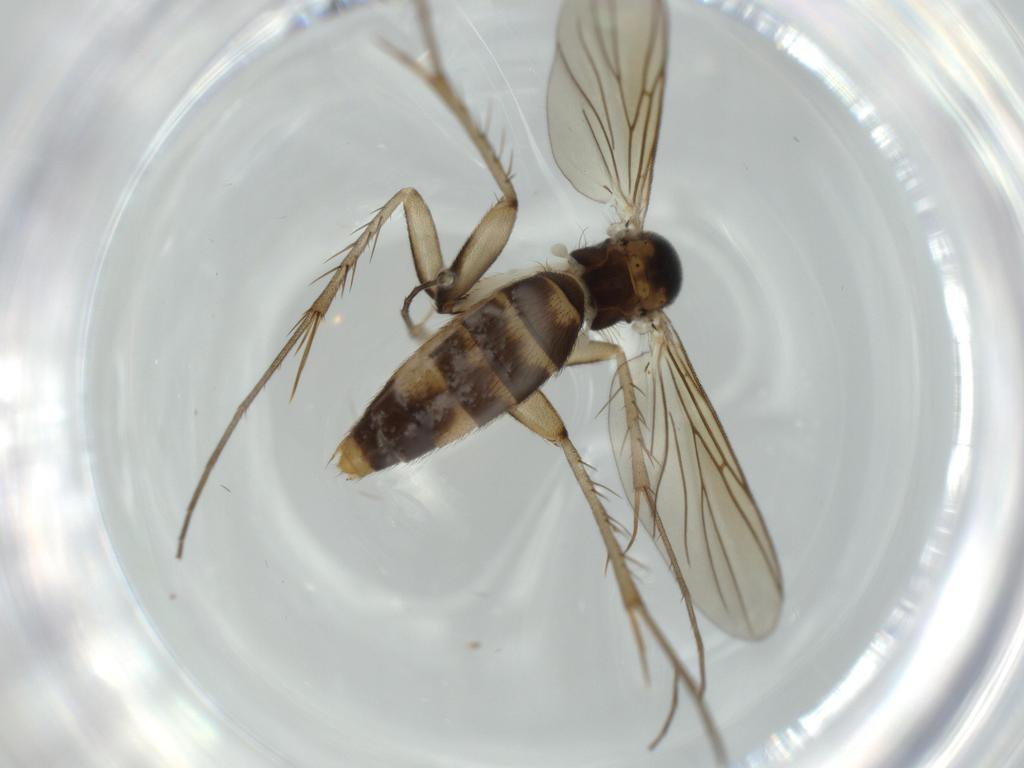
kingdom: Animalia
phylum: Arthropoda
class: Insecta
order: Diptera
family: Mycetophilidae
